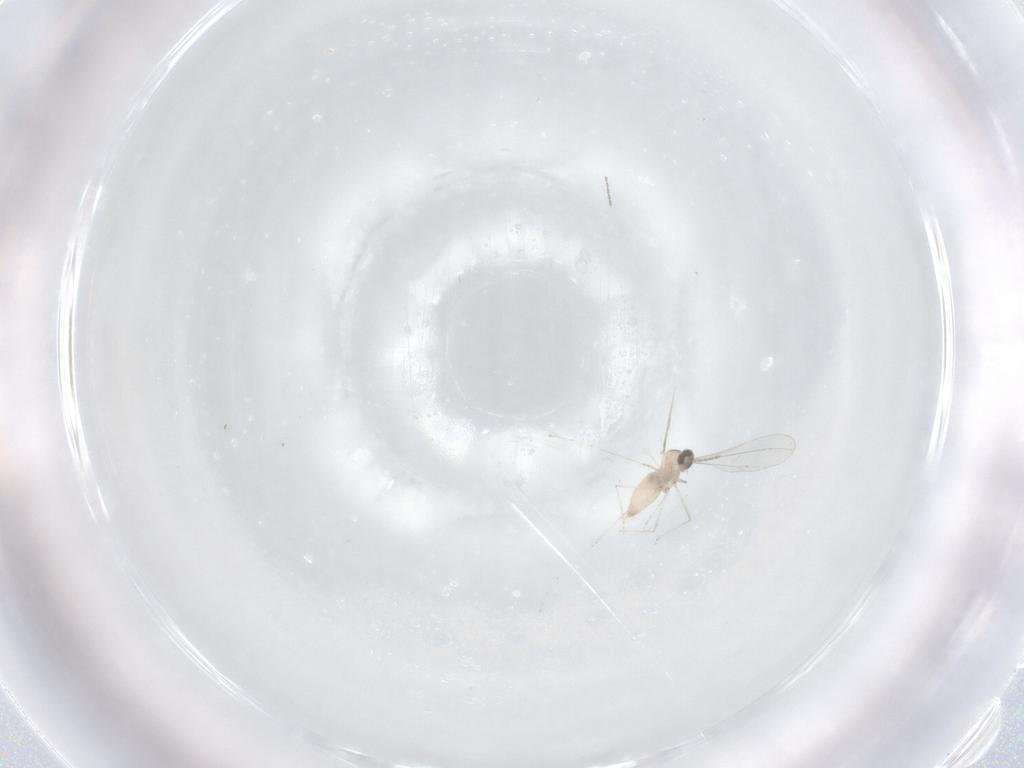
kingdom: Animalia
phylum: Arthropoda
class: Insecta
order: Diptera
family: Cecidomyiidae
